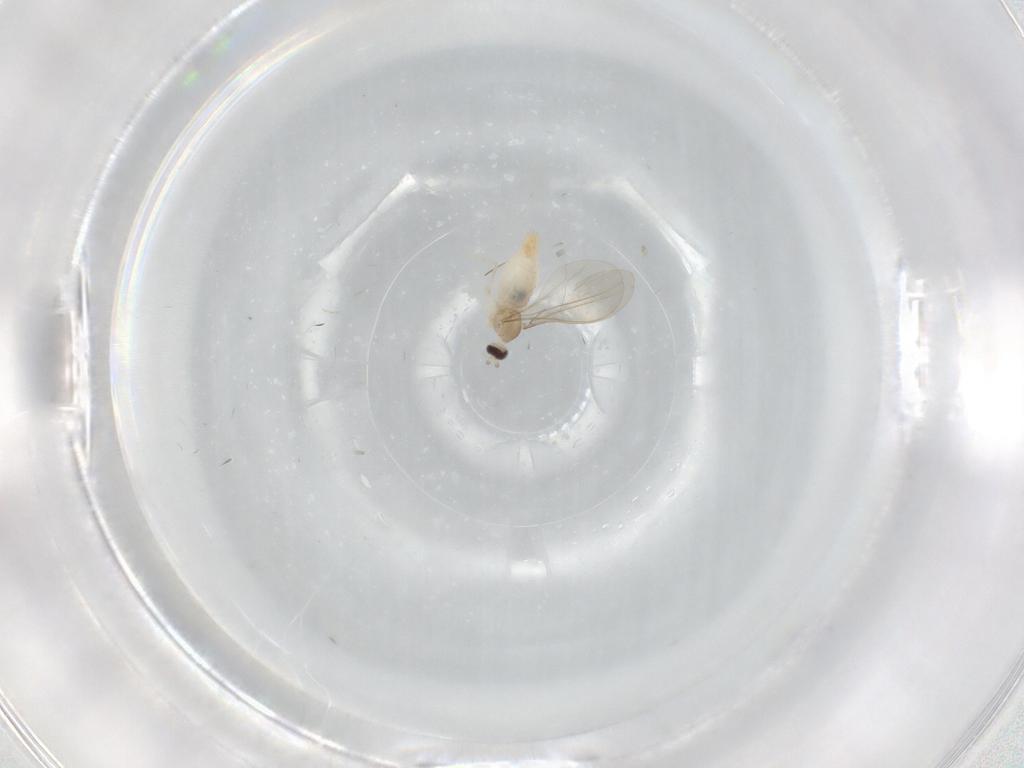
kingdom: Animalia
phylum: Arthropoda
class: Insecta
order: Diptera
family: Cecidomyiidae
